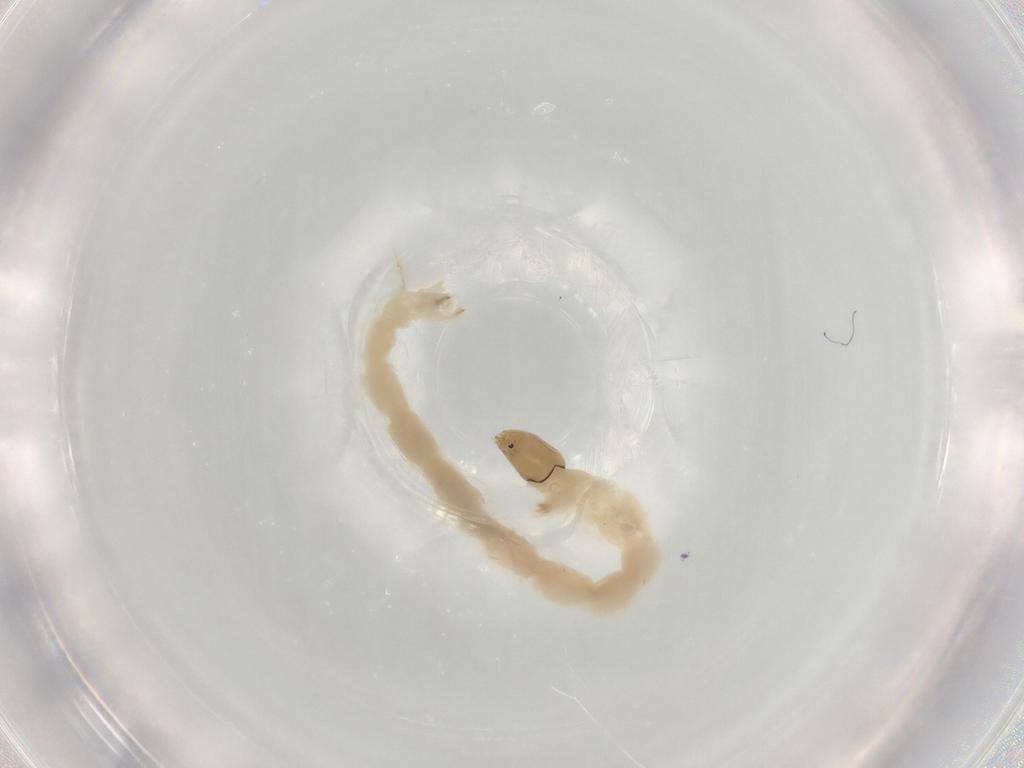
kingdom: Animalia
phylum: Arthropoda
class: Insecta
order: Diptera
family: Chironomidae
